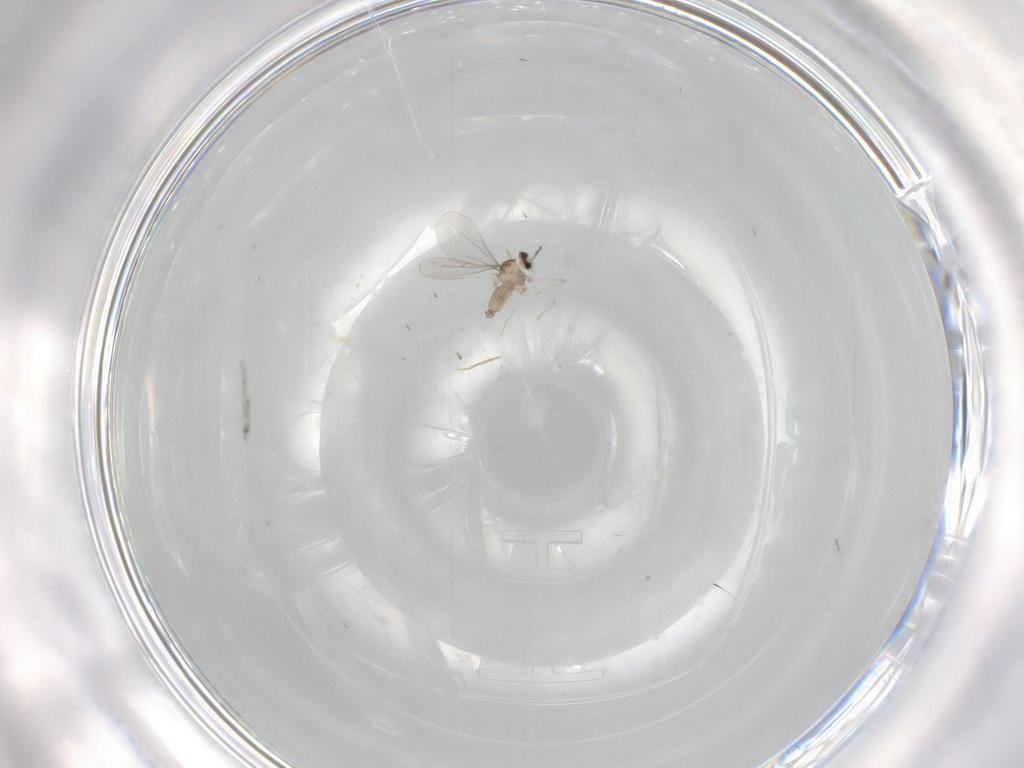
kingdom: Animalia
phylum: Arthropoda
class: Insecta
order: Diptera
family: Cecidomyiidae
